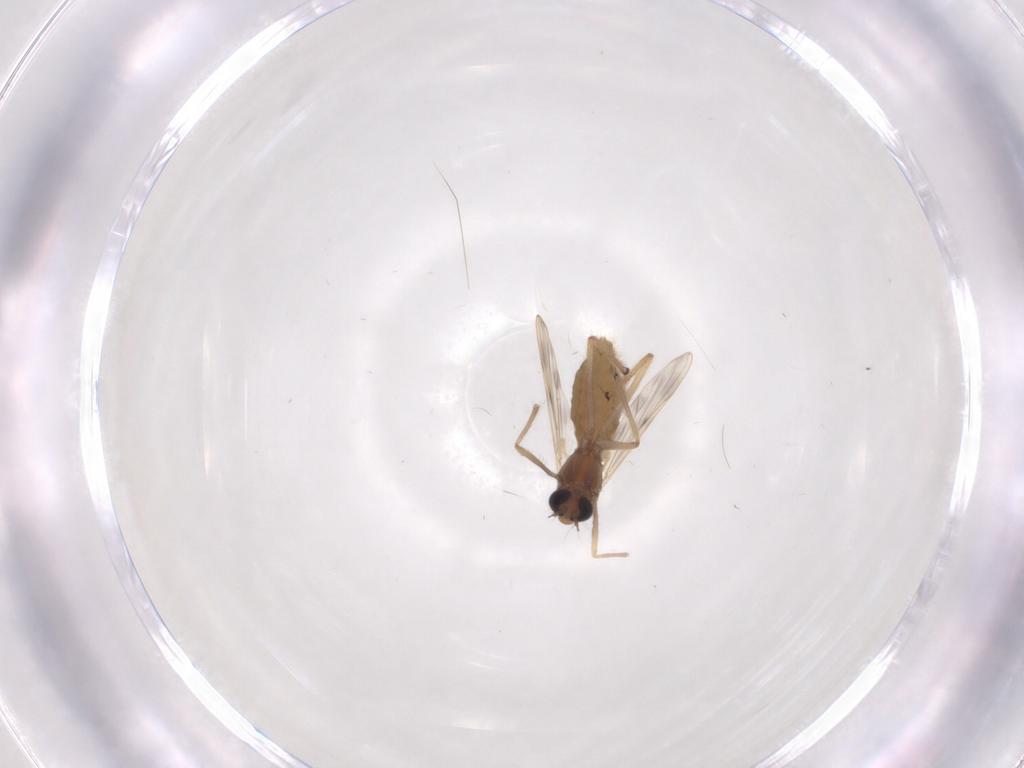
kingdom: Animalia
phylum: Arthropoda
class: Insecta
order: Diptera
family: Chironomidae
